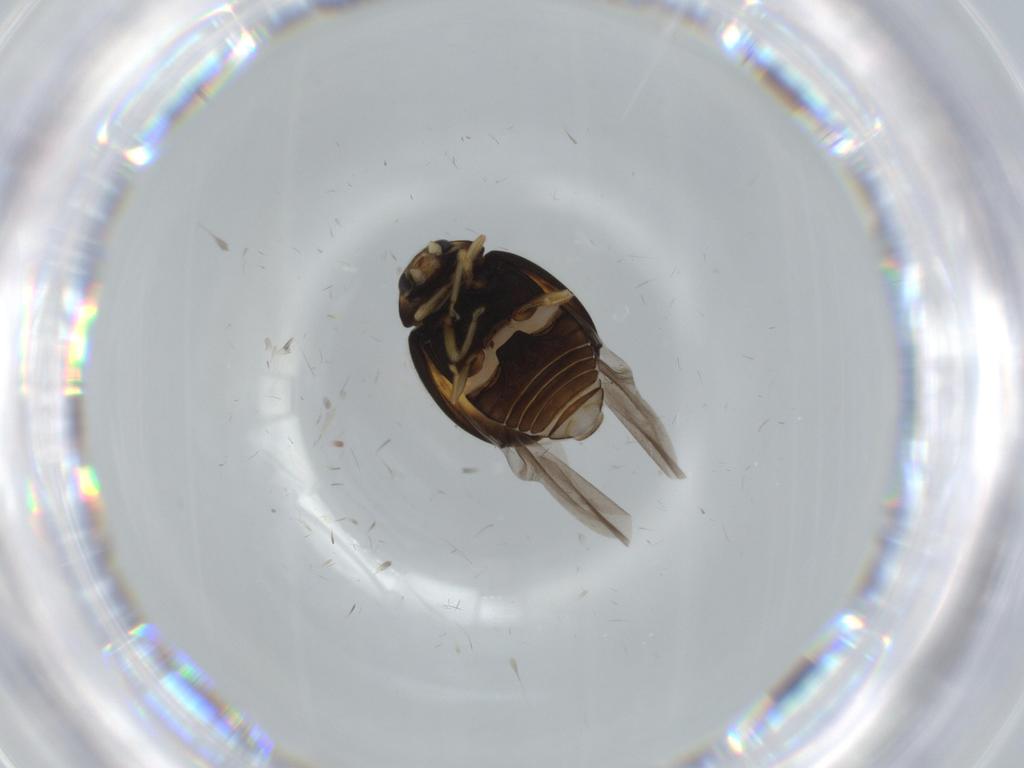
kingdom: Animalia
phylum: Arthropoda
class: Insecta
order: Coleoptera
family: Coccinellidae
